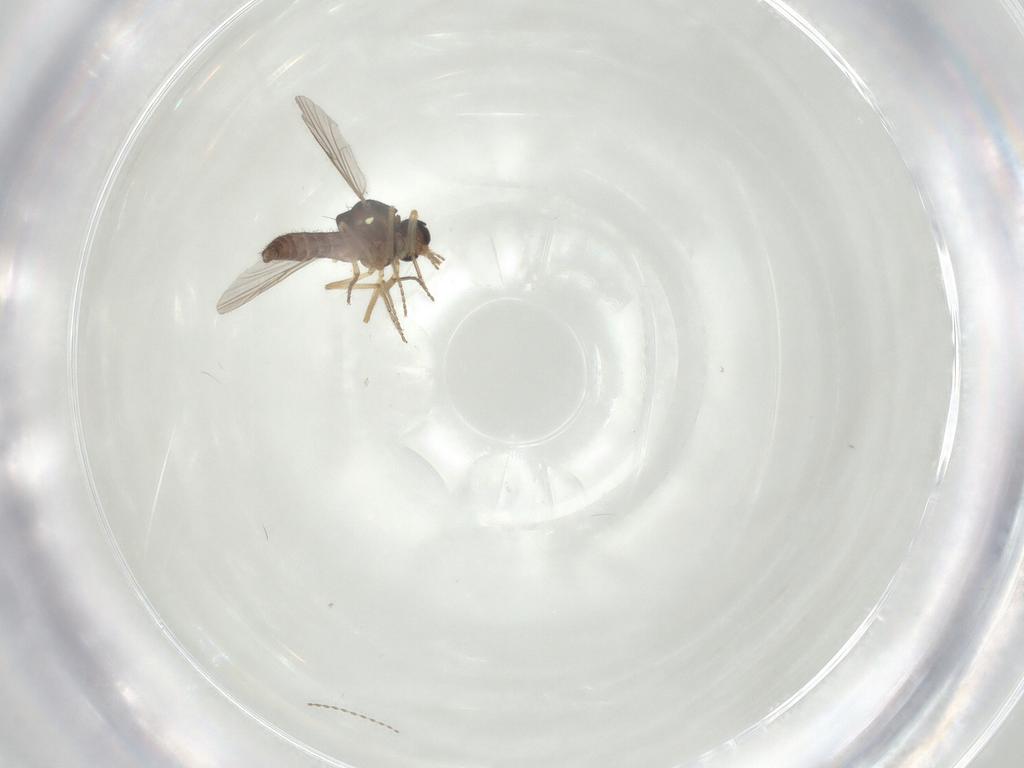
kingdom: Animalia
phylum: Arthropoda
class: Insecta
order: Diptera
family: Ceratopogonidae
